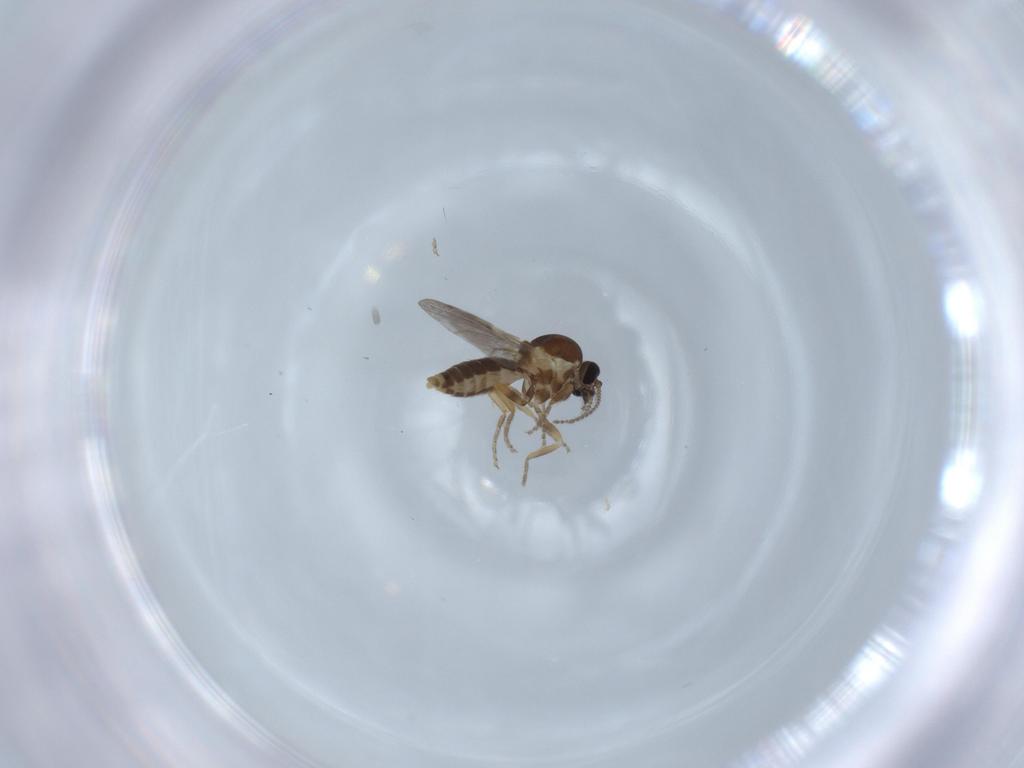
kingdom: Animalia
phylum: Arthropoda
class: Insecta
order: Diptera
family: Ceratopogonidae
